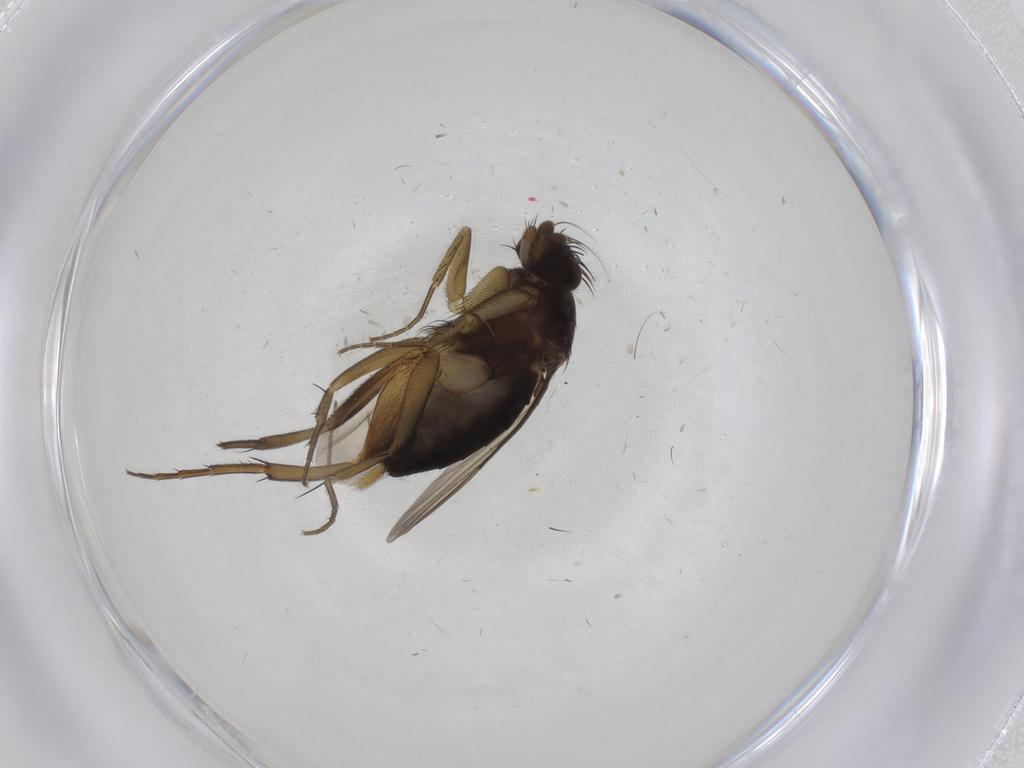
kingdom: Animalia
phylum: Arthropoda
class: Insecta
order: Diptera
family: Phoridae
